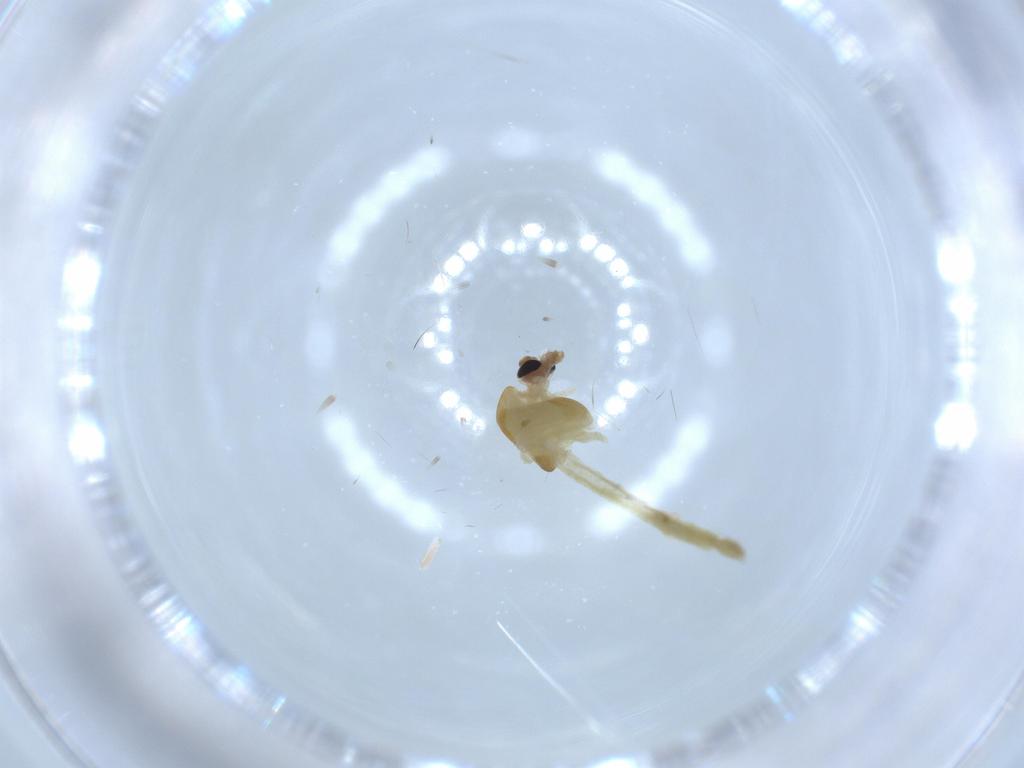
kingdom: Animalia
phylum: Arthropoda
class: Insecta
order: Diptera
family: Chironomidae
